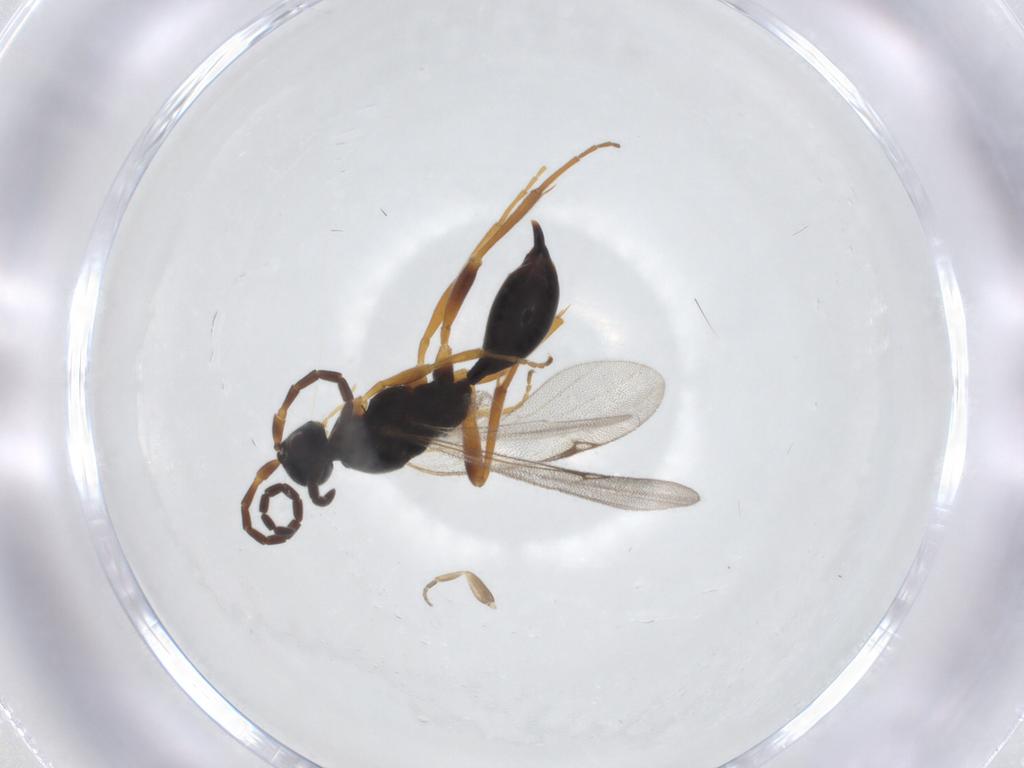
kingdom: Animalia
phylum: Arthropoda
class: Insecta
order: Hymenoptera
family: Proctotrupidae
